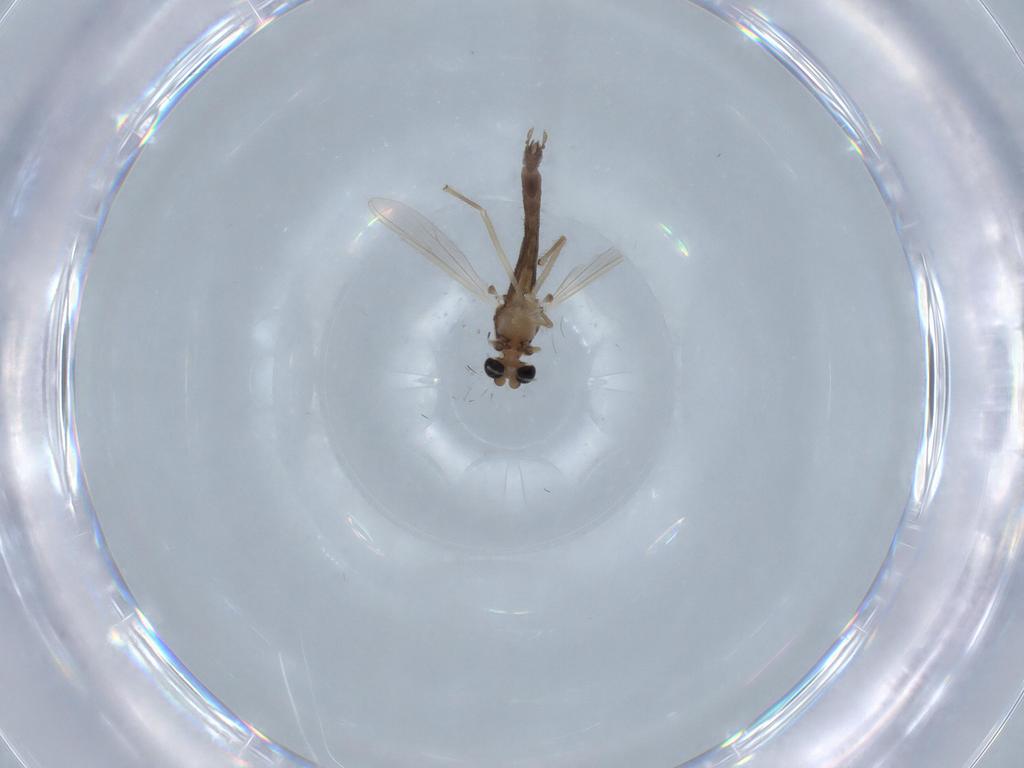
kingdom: Animalia
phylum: Arthropoda
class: Insecta
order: Diptera
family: Chironomidae
